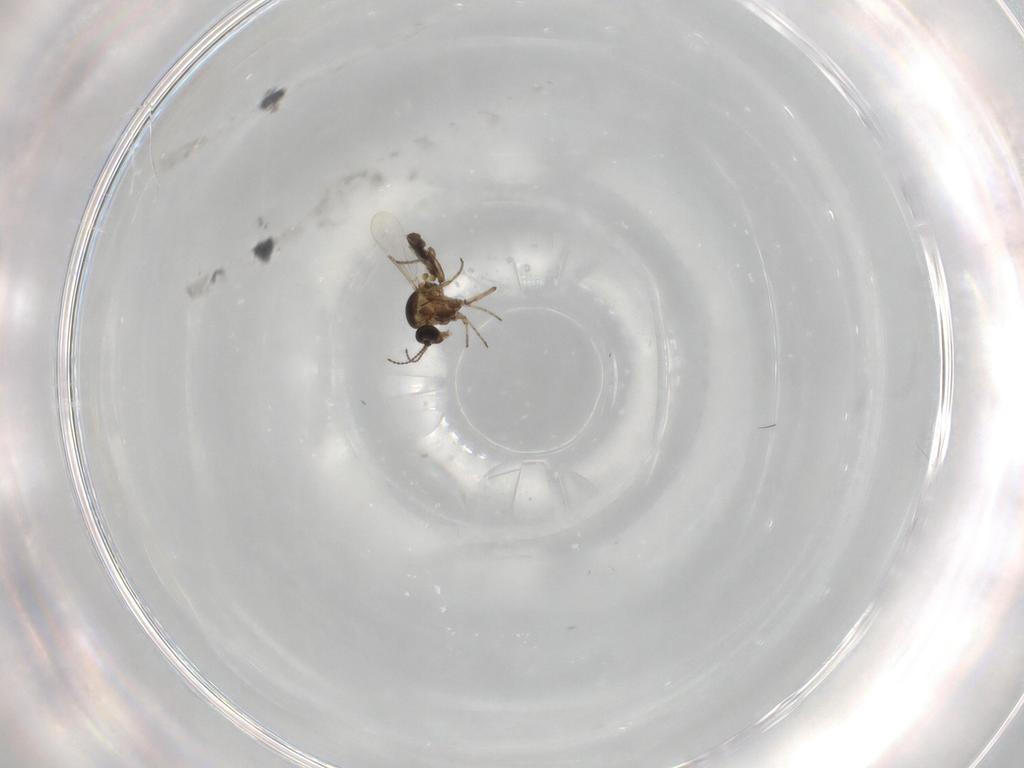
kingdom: Animalia
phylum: Arthropoda
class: Insecta
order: Diptera
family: Ceratopogonidae
